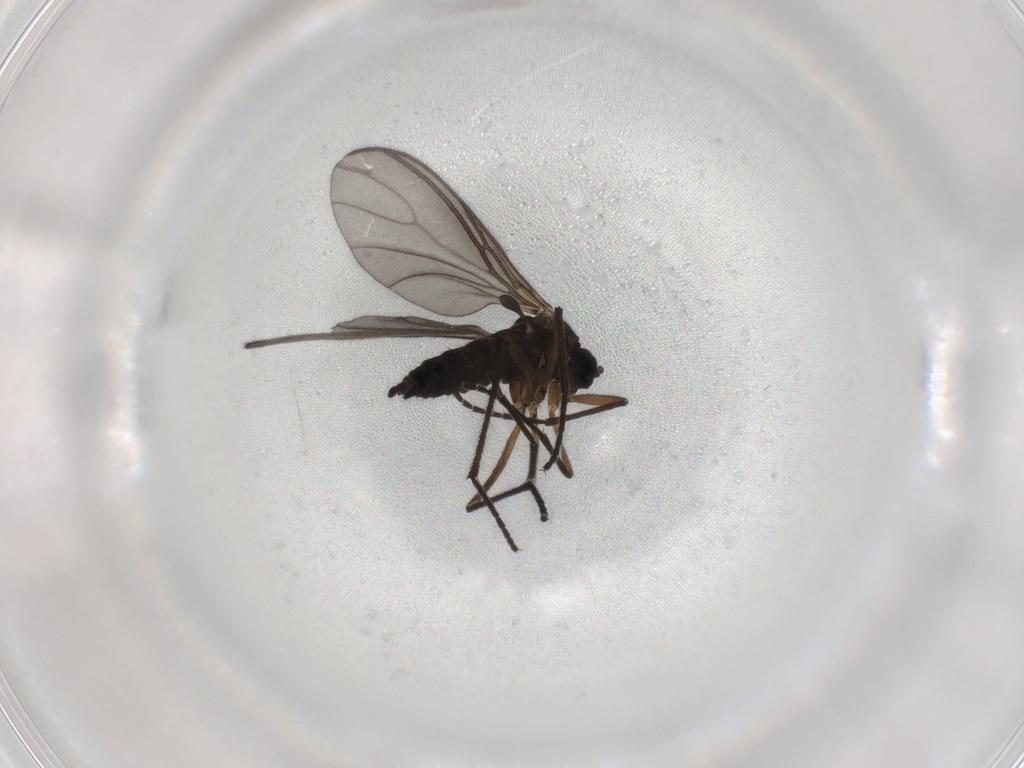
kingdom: Animalia
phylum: Arthropoda
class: Insecta
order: Diptera
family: Sciaridae
